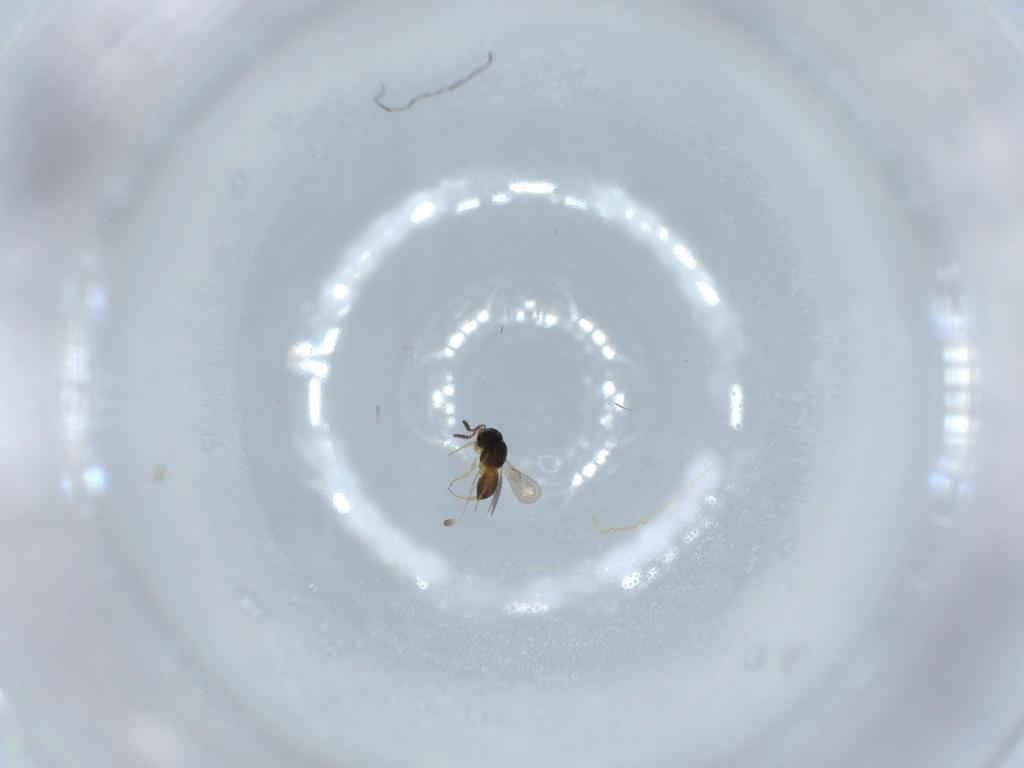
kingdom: Animalia
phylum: Arthropoda
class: Insecta
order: Hymenoptera
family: Scelionidae
